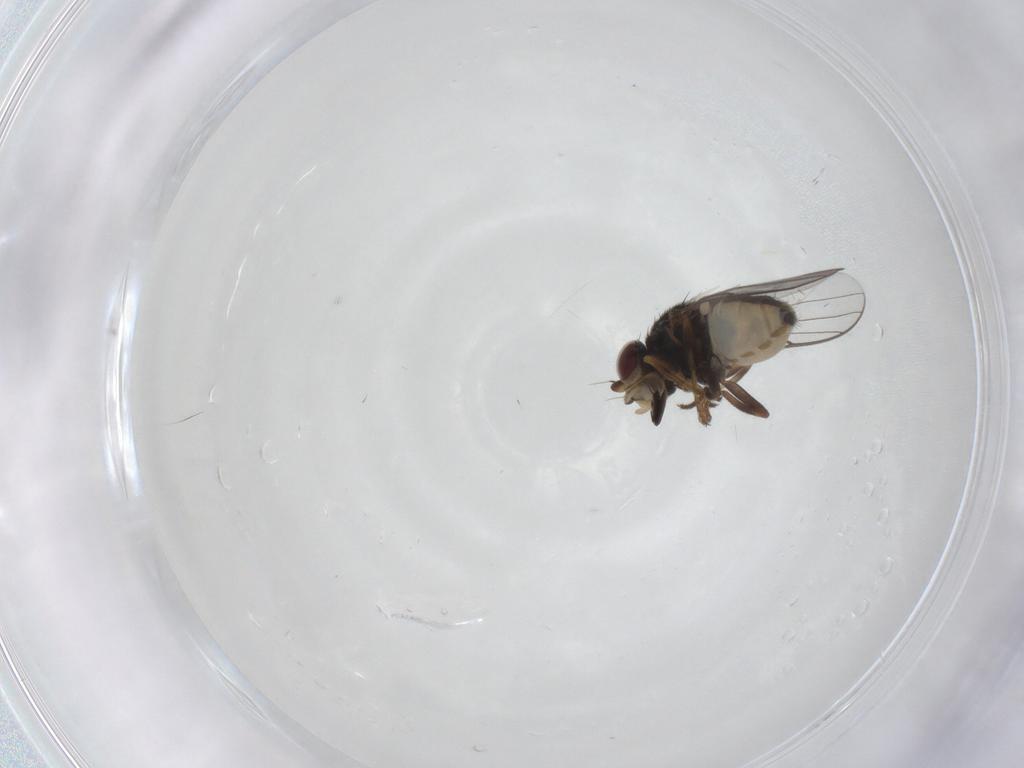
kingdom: Animalia
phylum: Arthropoda
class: Insecta
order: Diptera
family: Chloropidae
